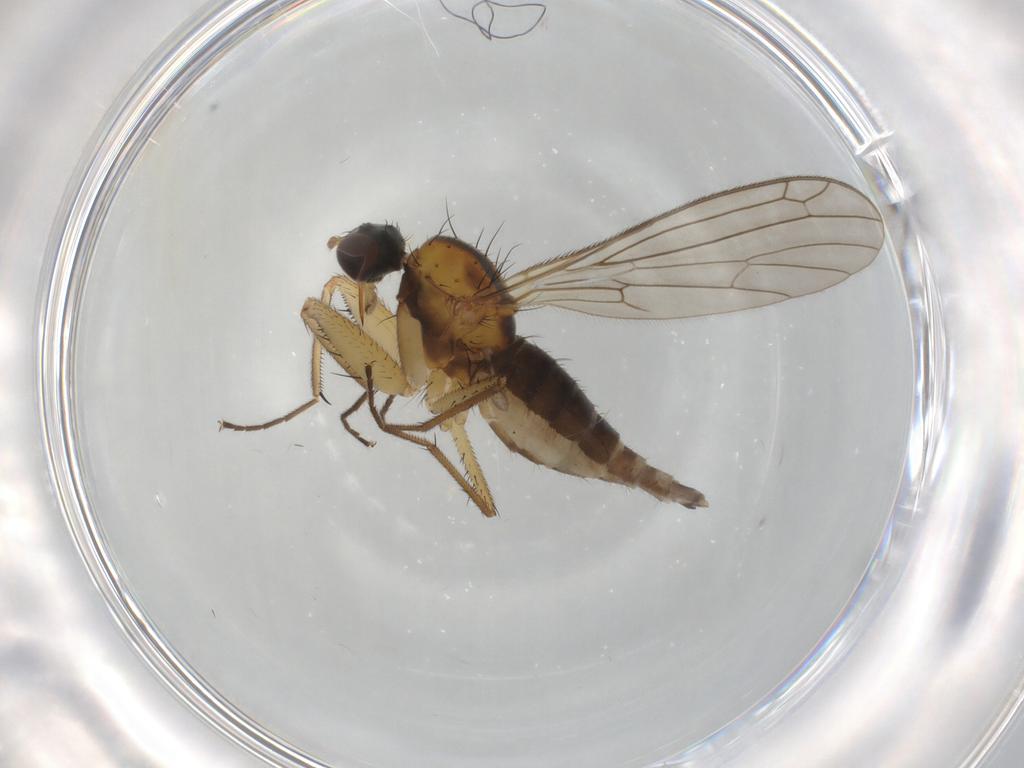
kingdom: Animalia
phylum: Arthropoda
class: Insecta
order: Diptera
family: Empididae
